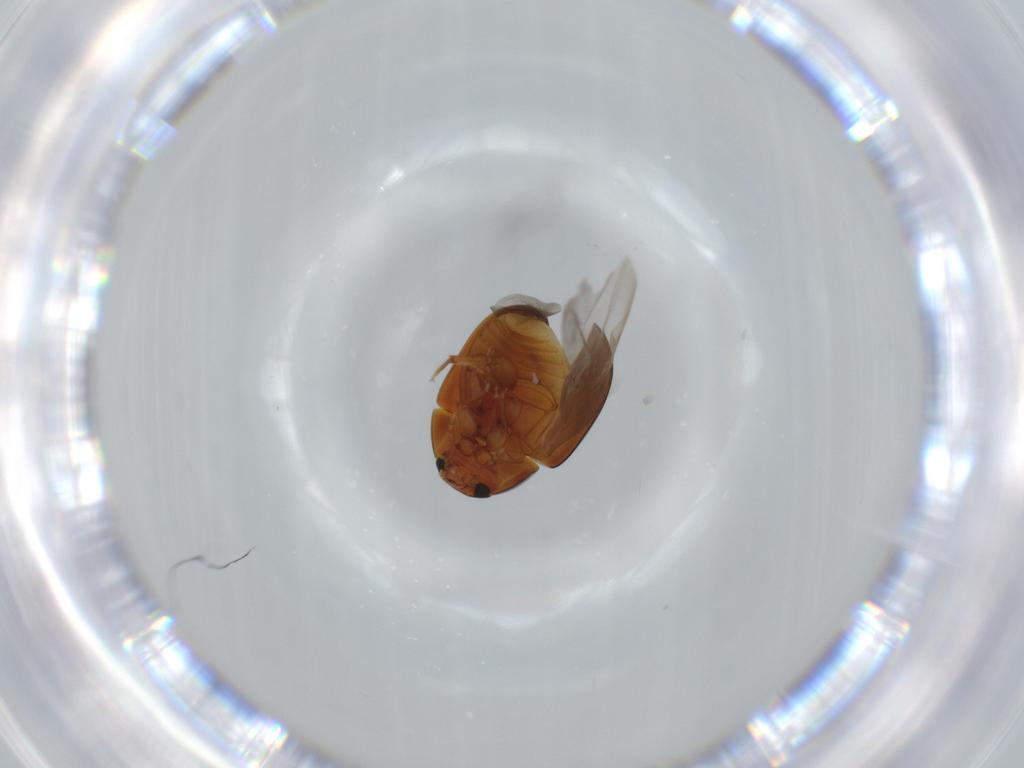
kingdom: Animalia
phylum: Arthropoda
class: Insecta
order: Coleoptera
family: Phalacridae
